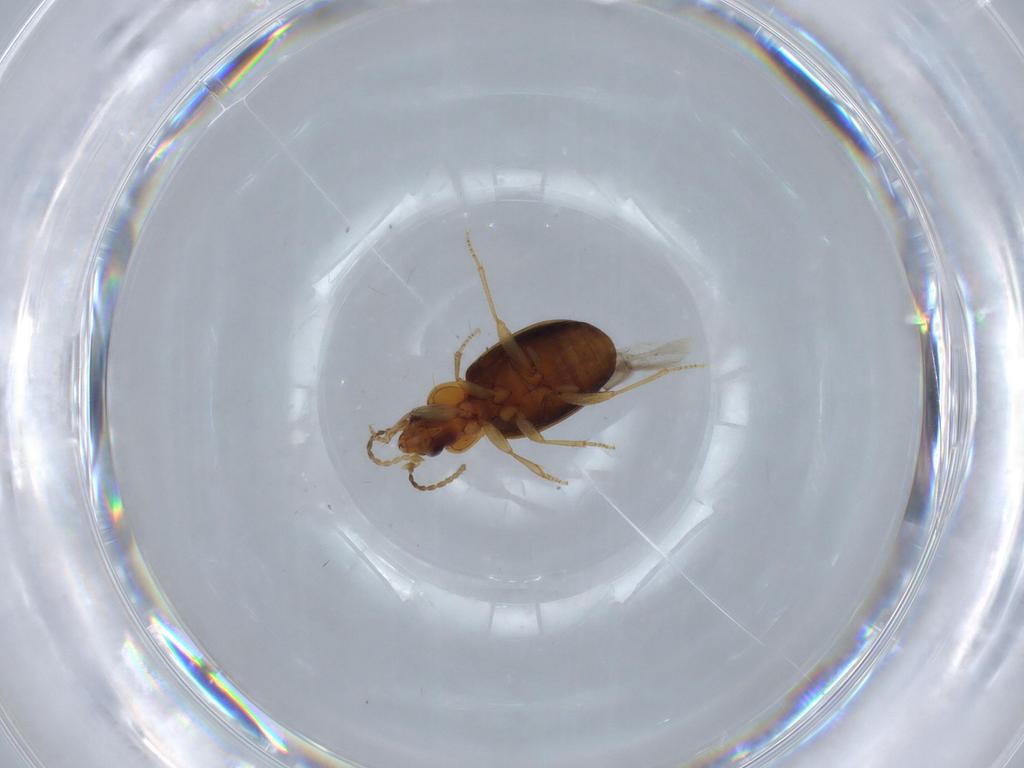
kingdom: Animalia
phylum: Arthropoda
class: Insecta
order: Coleoptera
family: Carabidae
